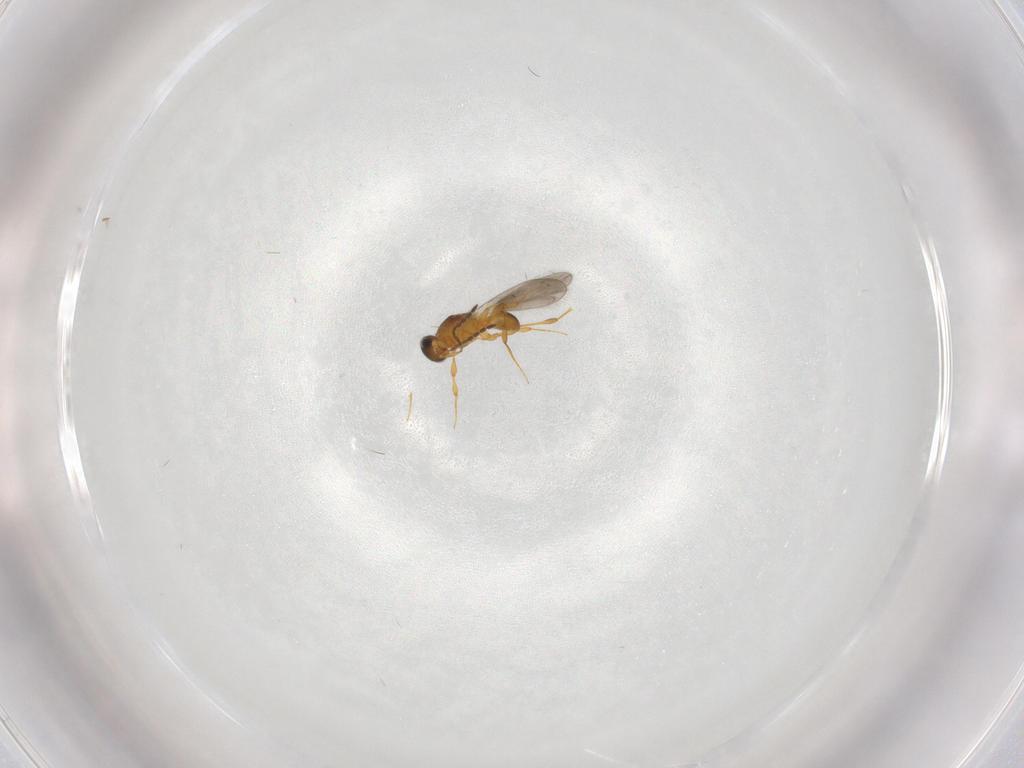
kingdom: Animalia
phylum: Arthropoda
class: Insecta
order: Hymenoptera
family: Platygastridae
